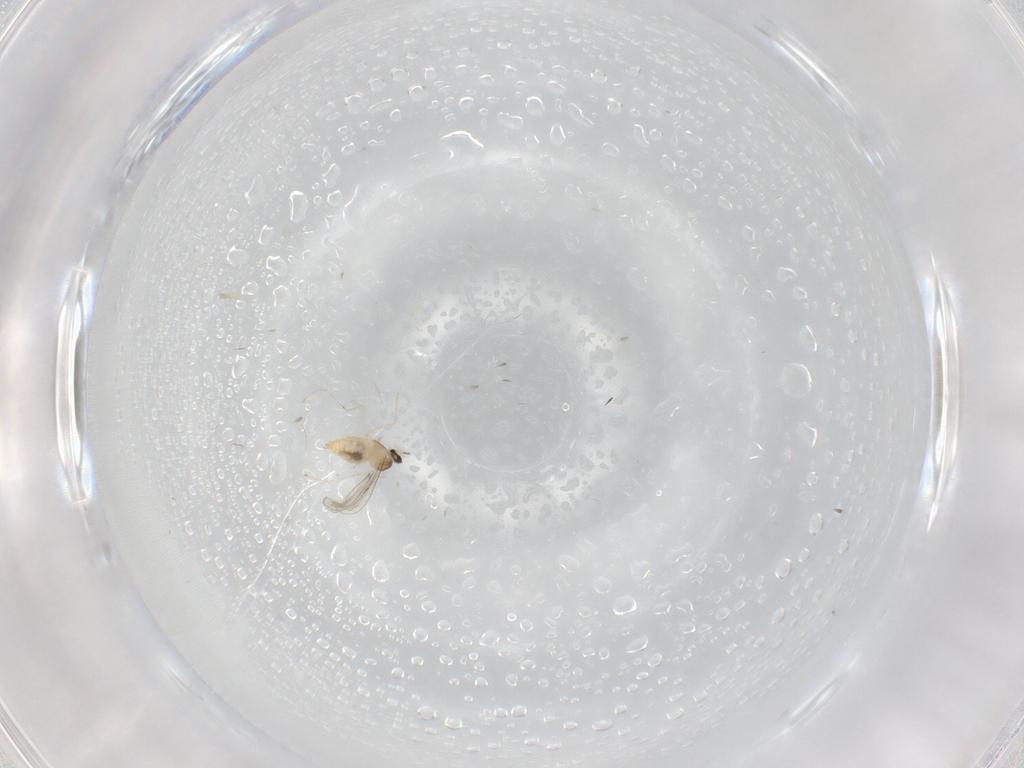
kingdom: Animalia
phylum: Arthropoda
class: Insecta
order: Diptera
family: Cecidomyiidae
